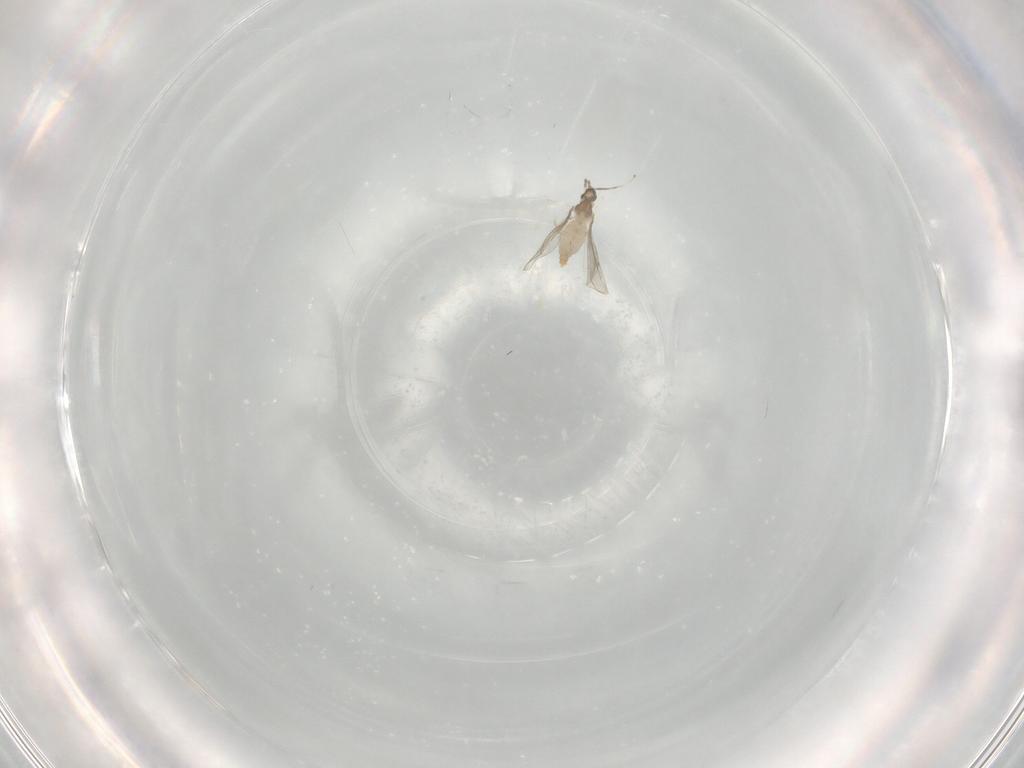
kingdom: Animalia
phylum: Arthropoda
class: Insecta
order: Diptera
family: Cecidomyiidae
